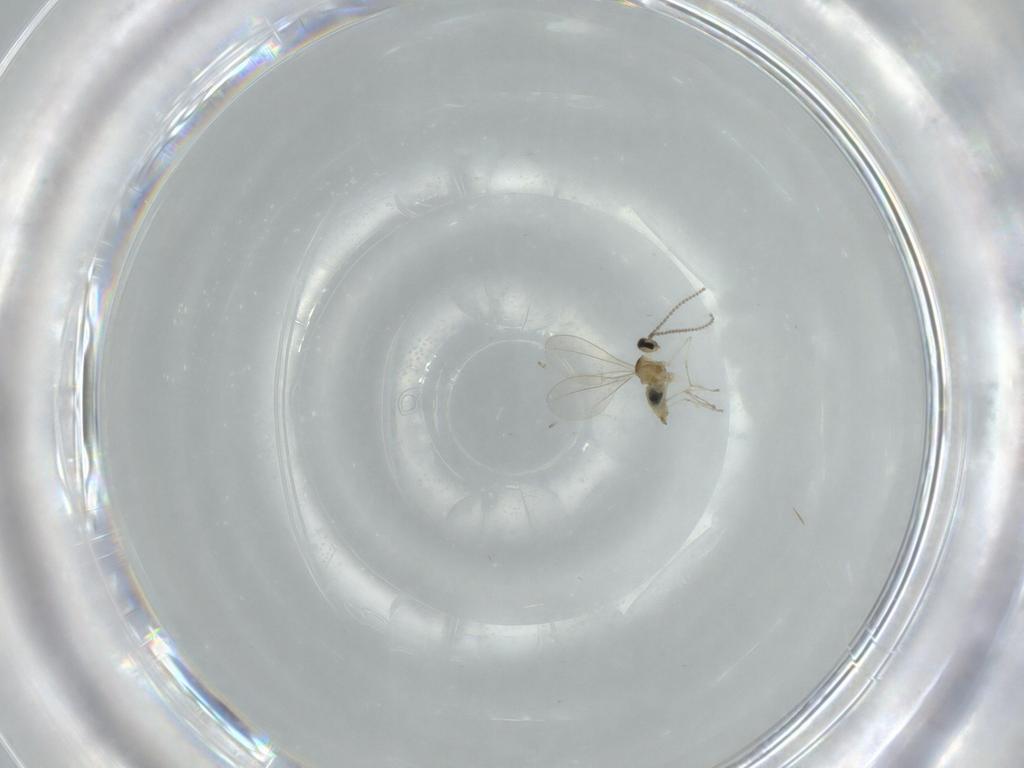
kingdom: Animalia
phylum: Arthropoda
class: Insecta
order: Diptera
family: Cecidomyiidae
